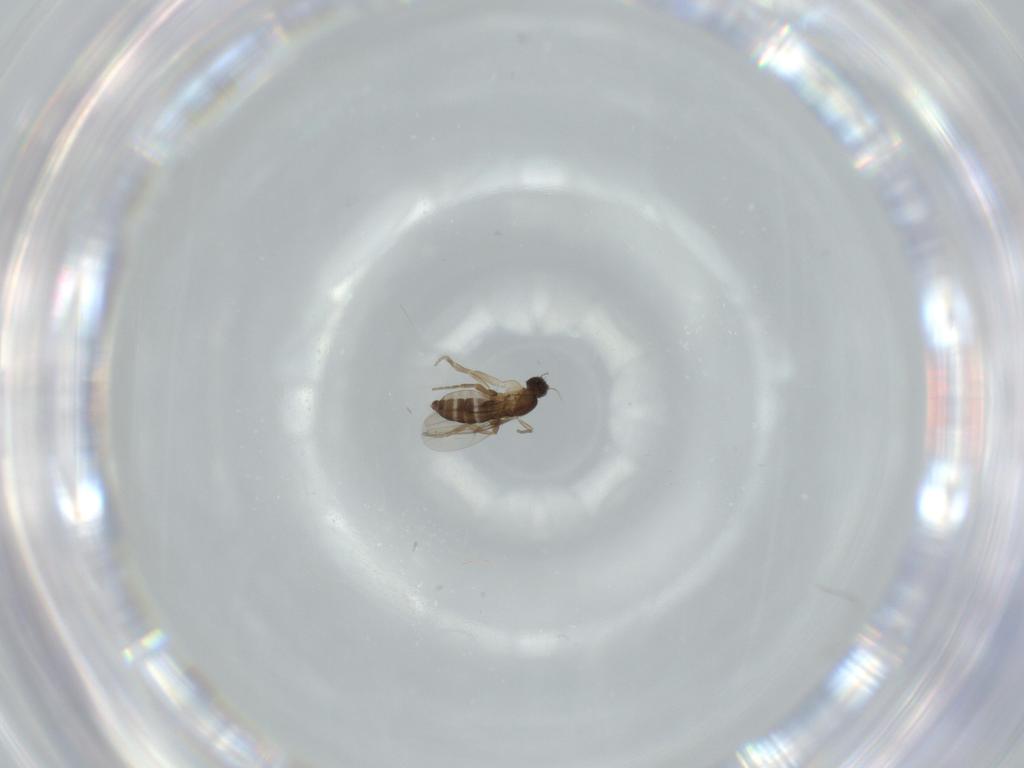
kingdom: Animalia
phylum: Arthropoda
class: Insecta
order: Diptera
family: Phoridae
